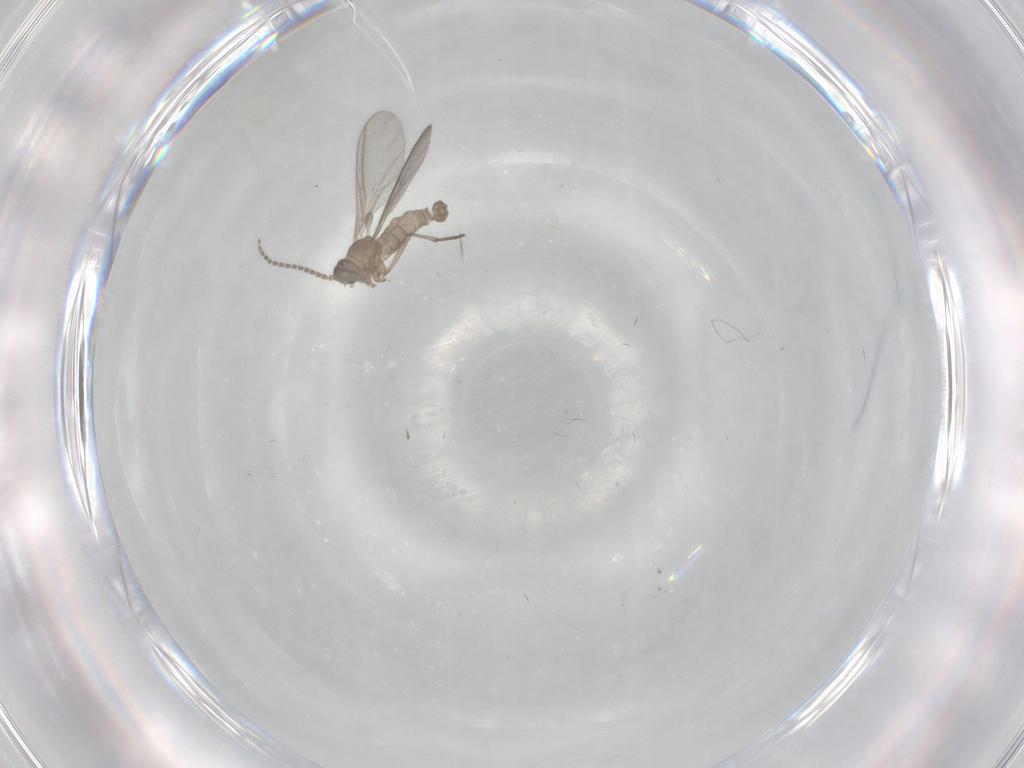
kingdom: Animalia
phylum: Arthropoda
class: Insecta
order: Diptera
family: Sciaridae
